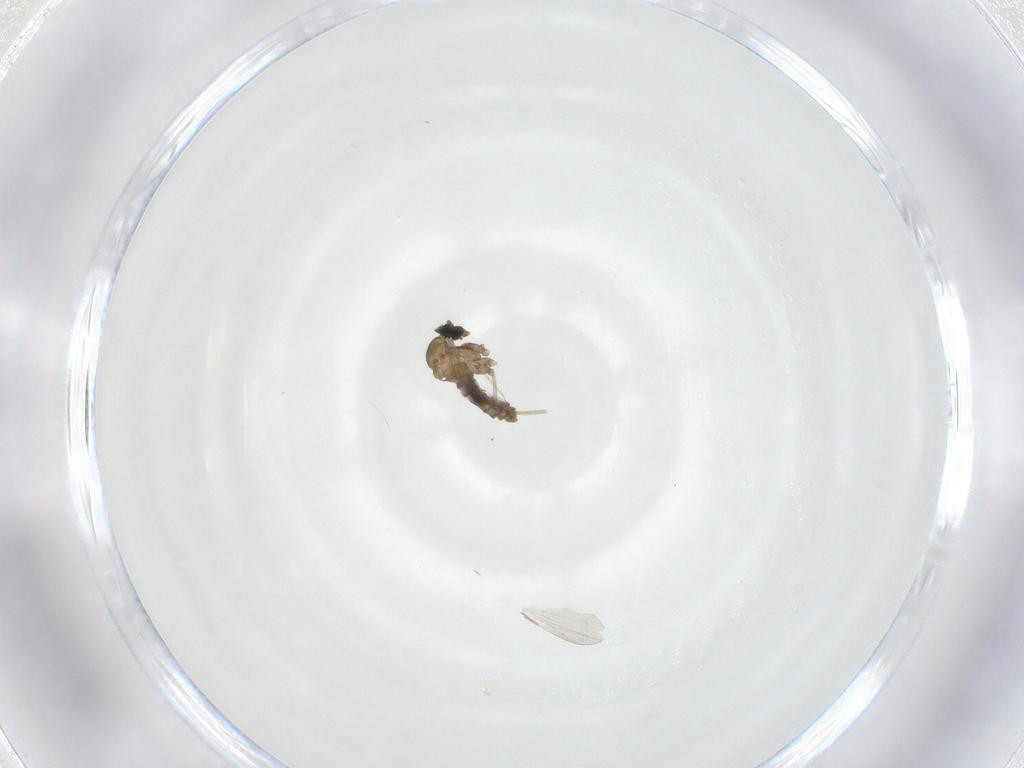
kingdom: Animalia
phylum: Arthropoda
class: Insecta
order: Diptera
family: Cecidomyiidae
